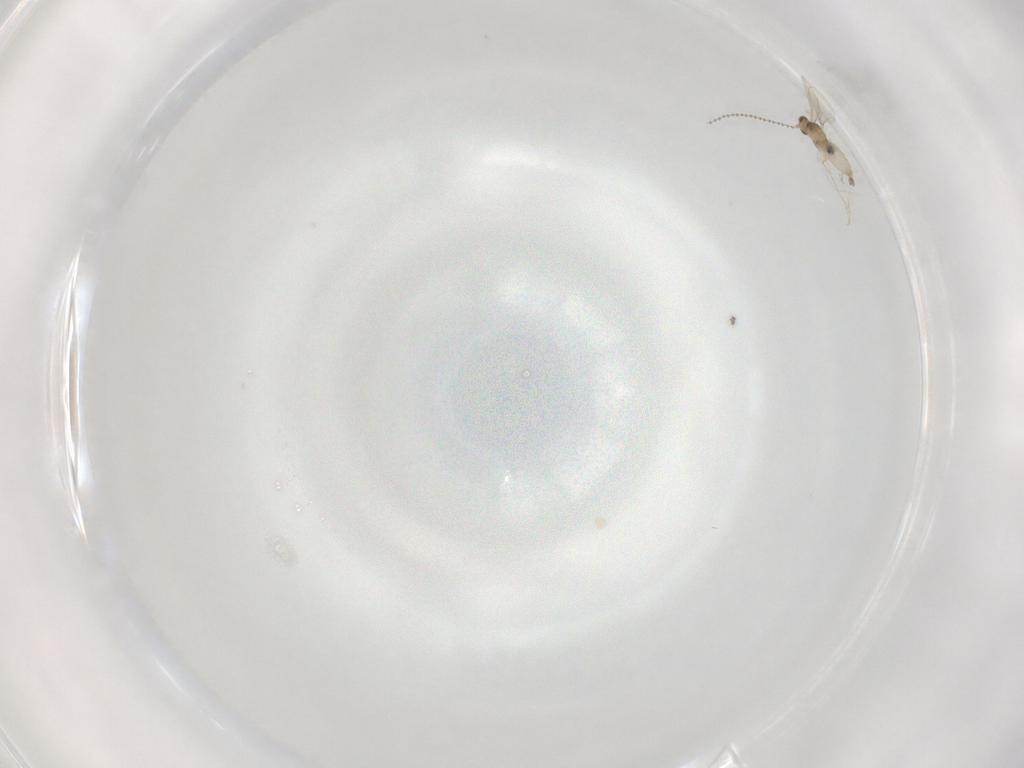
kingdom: Animalia
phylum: Arthropoda
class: Insecta
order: Diptera
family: Cecidomyiidae
